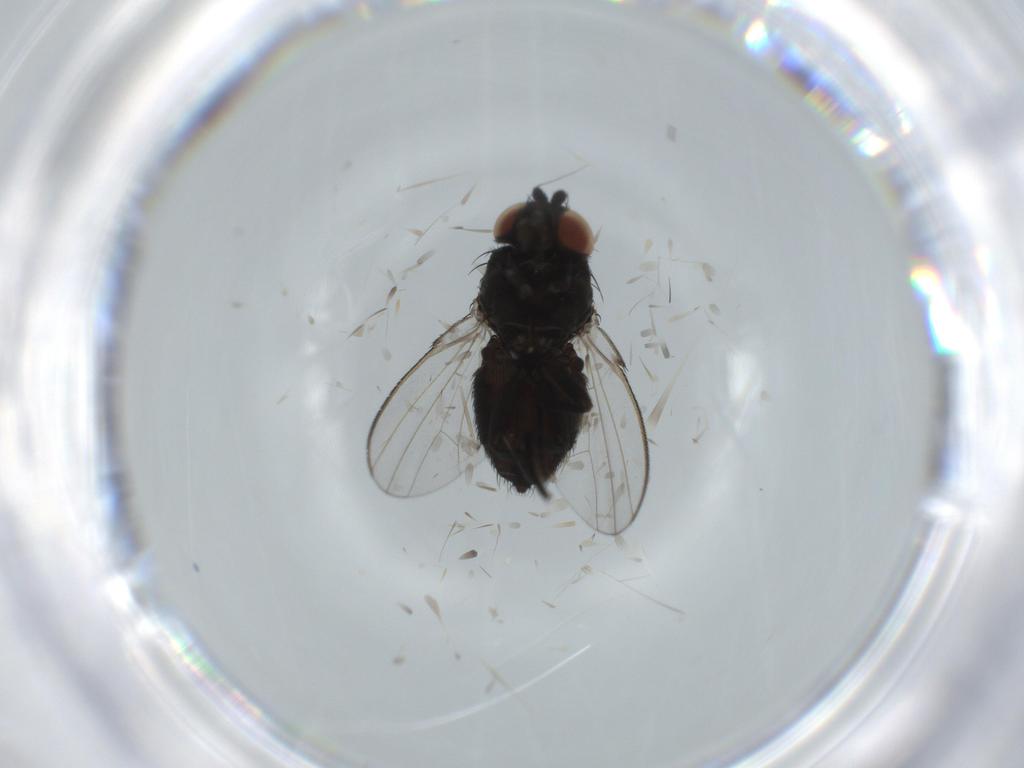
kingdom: Animalia
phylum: Arthropoda
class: Insecta
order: Diptera
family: Milichiidae
